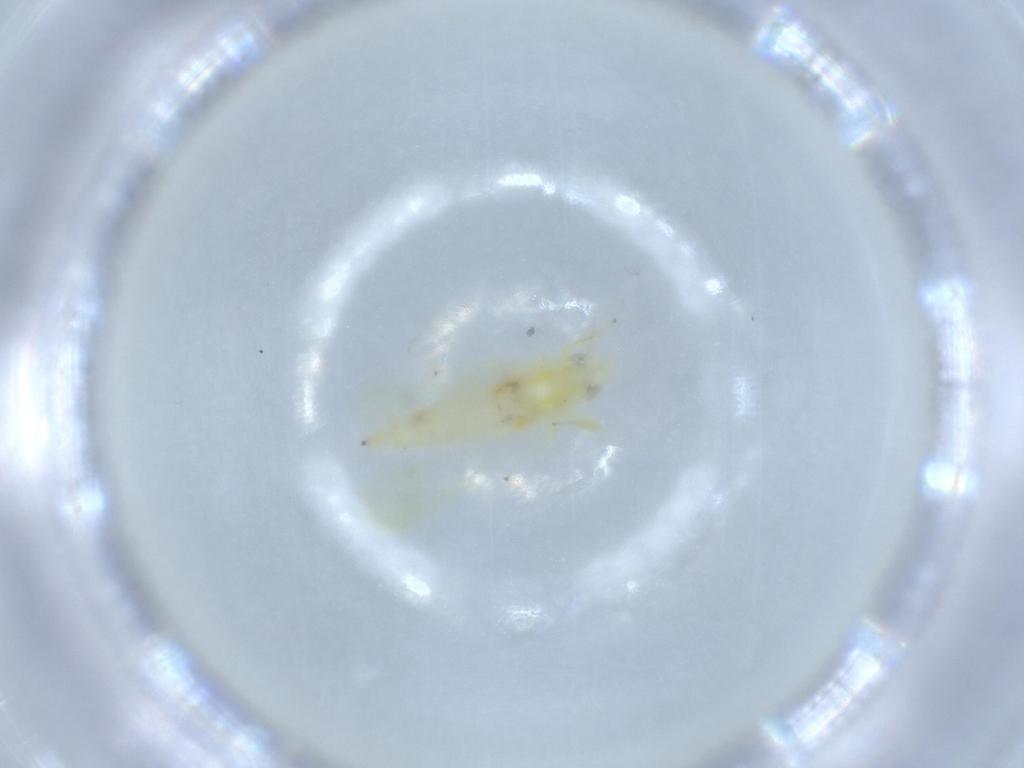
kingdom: Animalia
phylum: Arthropoda
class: Insecta
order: Hemiptera
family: Cicadellidae
